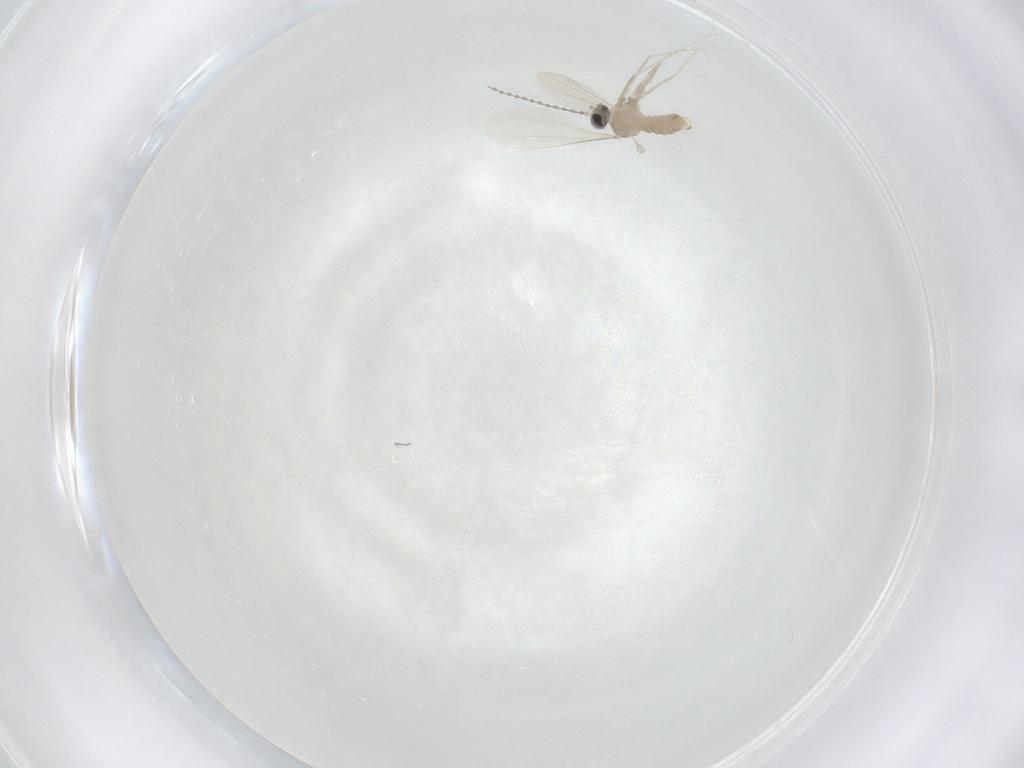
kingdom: Animalia
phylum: Arthropoda
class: Insecta
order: Diptera
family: Cecidomyiidae
